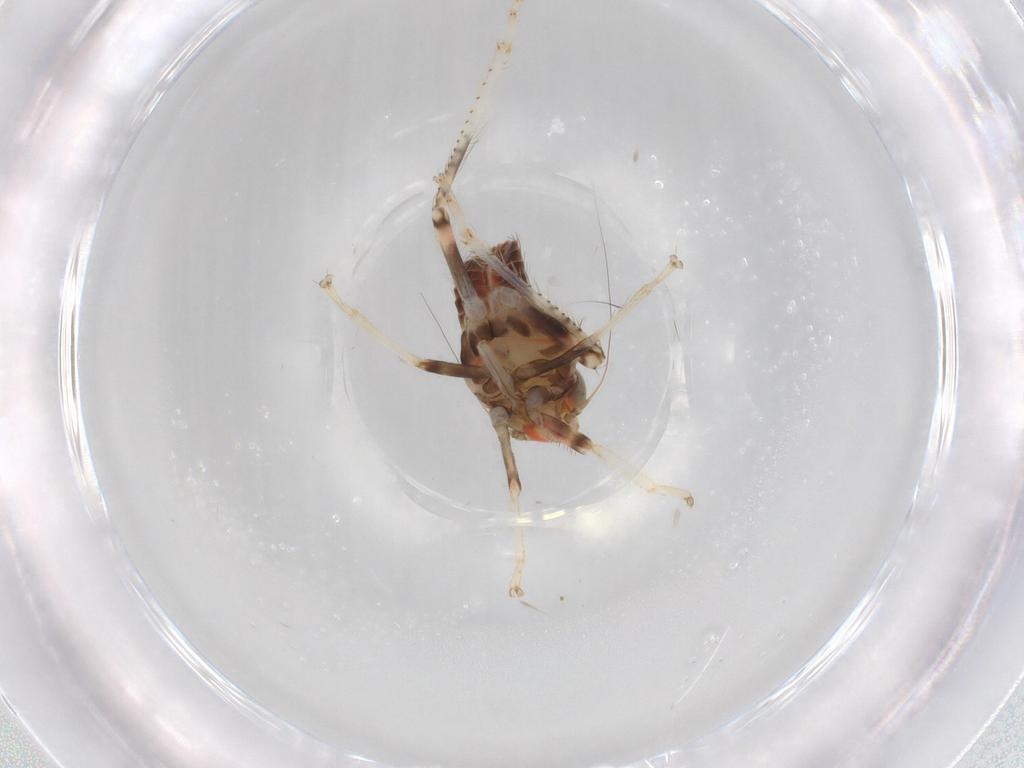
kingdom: Animalia
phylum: Arthropoda
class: Insecta
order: Hemiptera
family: Cicadellidae
